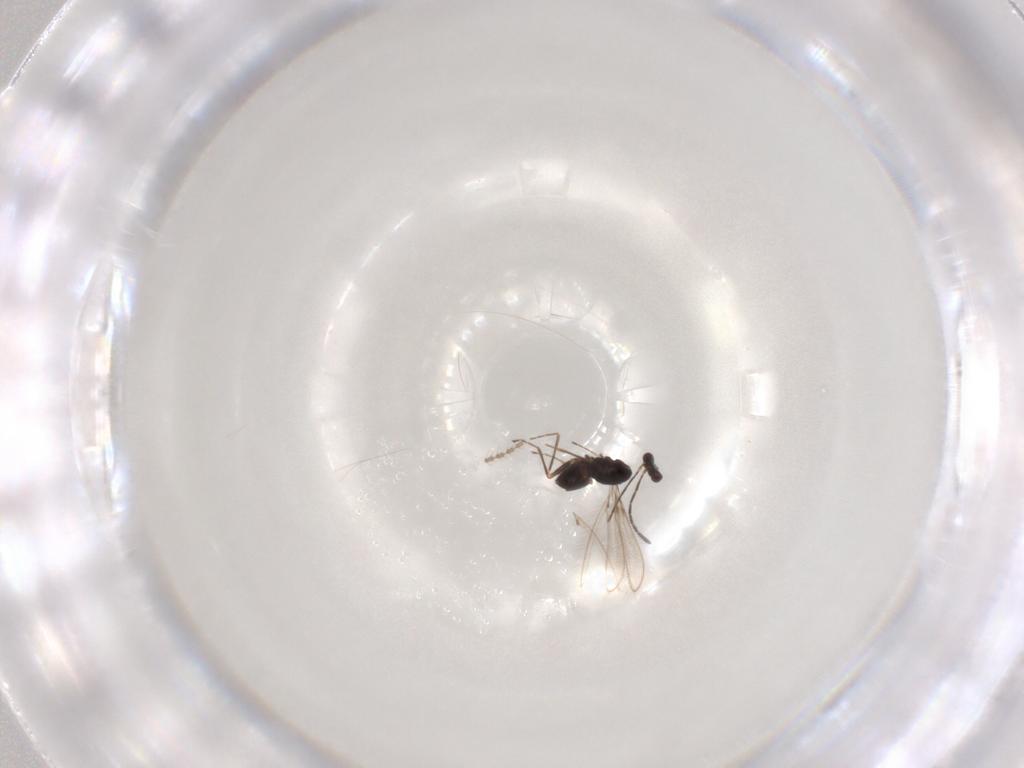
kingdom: Animalia
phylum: Arthropoda
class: Insecta
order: Hymenoptera
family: Mymaridae
